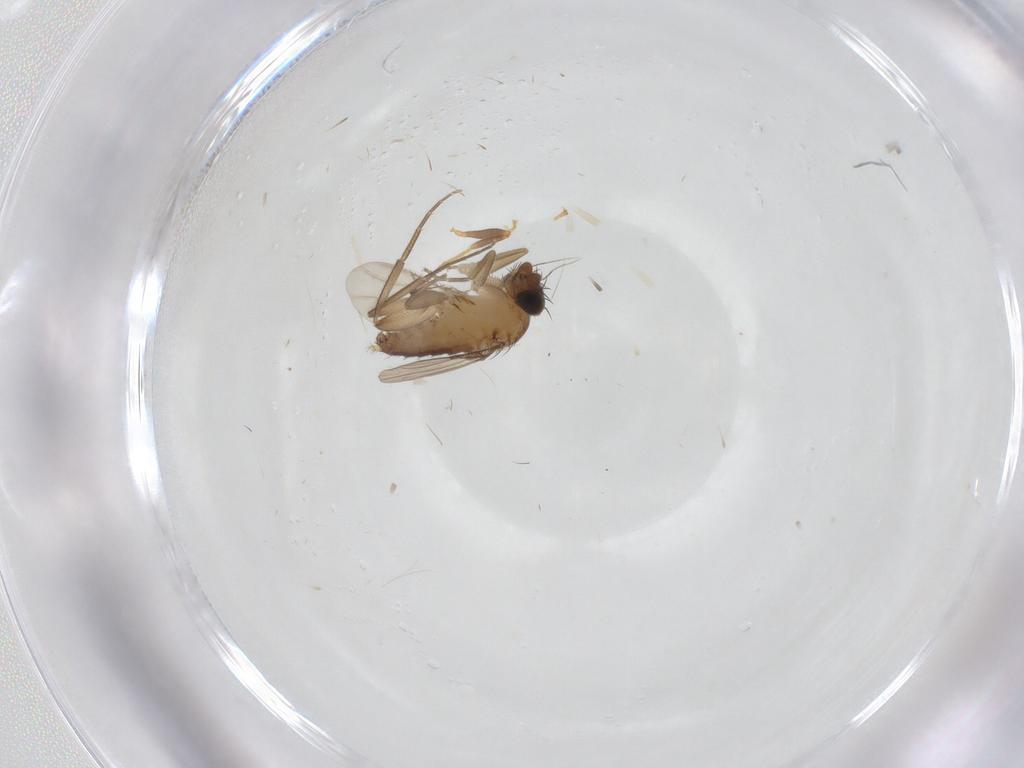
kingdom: Animalia
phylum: Arthropoda
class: Insecta
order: Diptera
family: Phoridae
